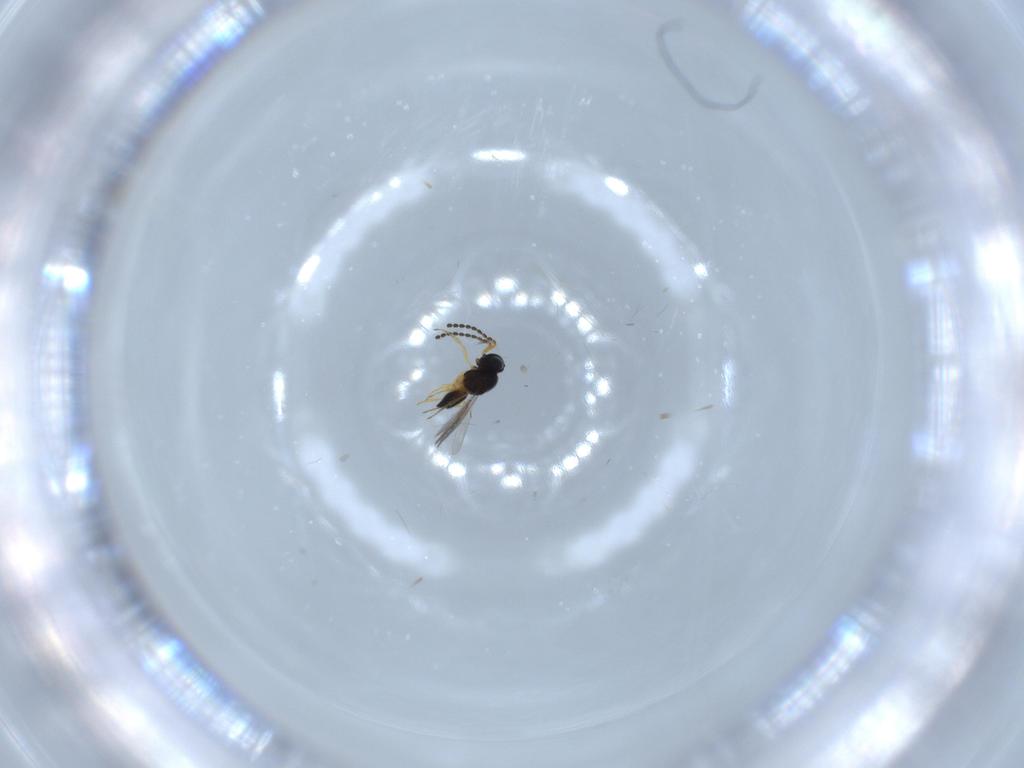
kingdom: Animalia
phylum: Arthropoda
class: Insecta
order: Hymenoptera
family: Scelionidae
